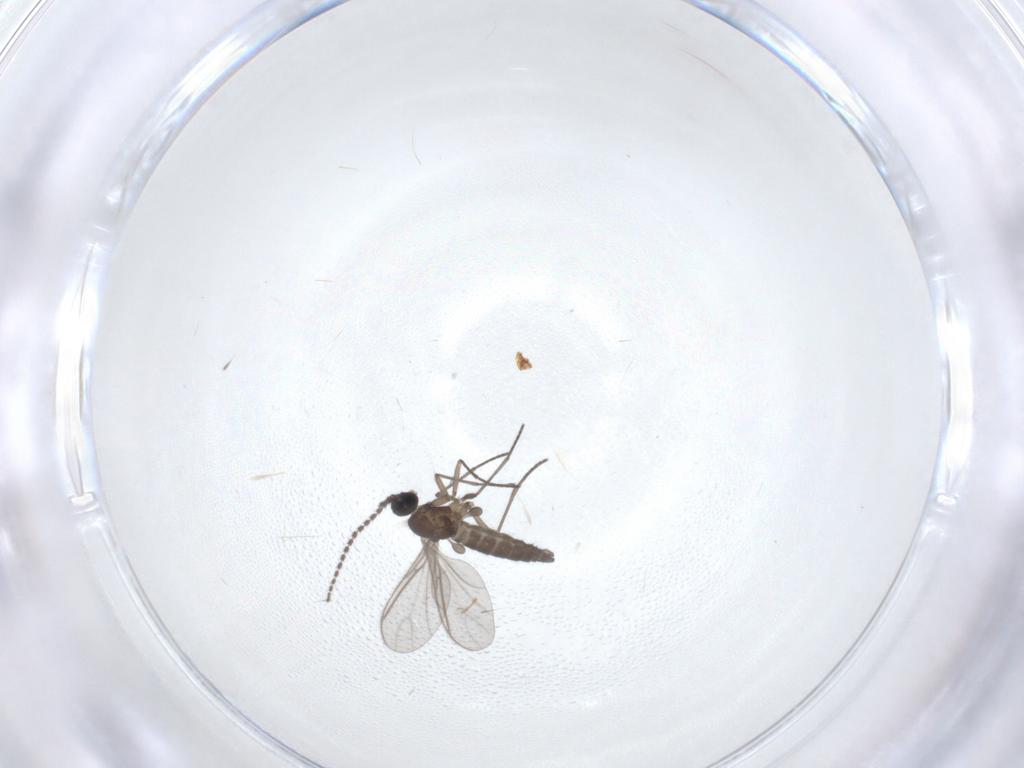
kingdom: Animalia
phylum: Arthropoda
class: Insecta
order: Diptera
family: Sciaridae
